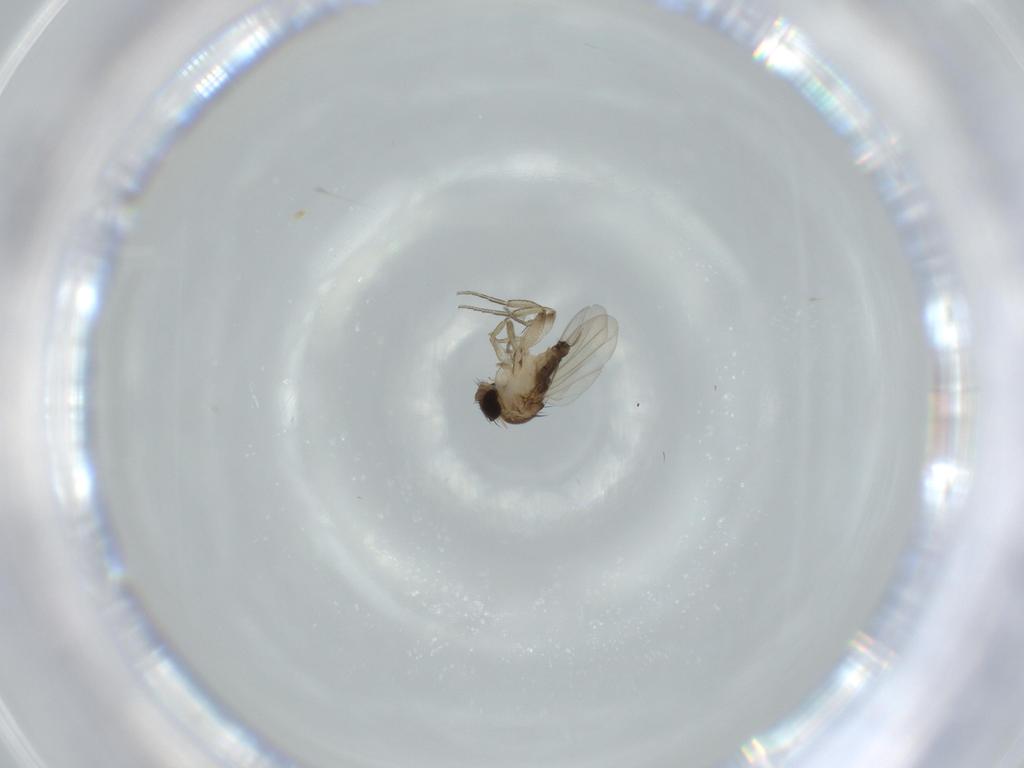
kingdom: Animalia
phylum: Arthropoda
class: Insecta
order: Diptera
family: Phoridae
